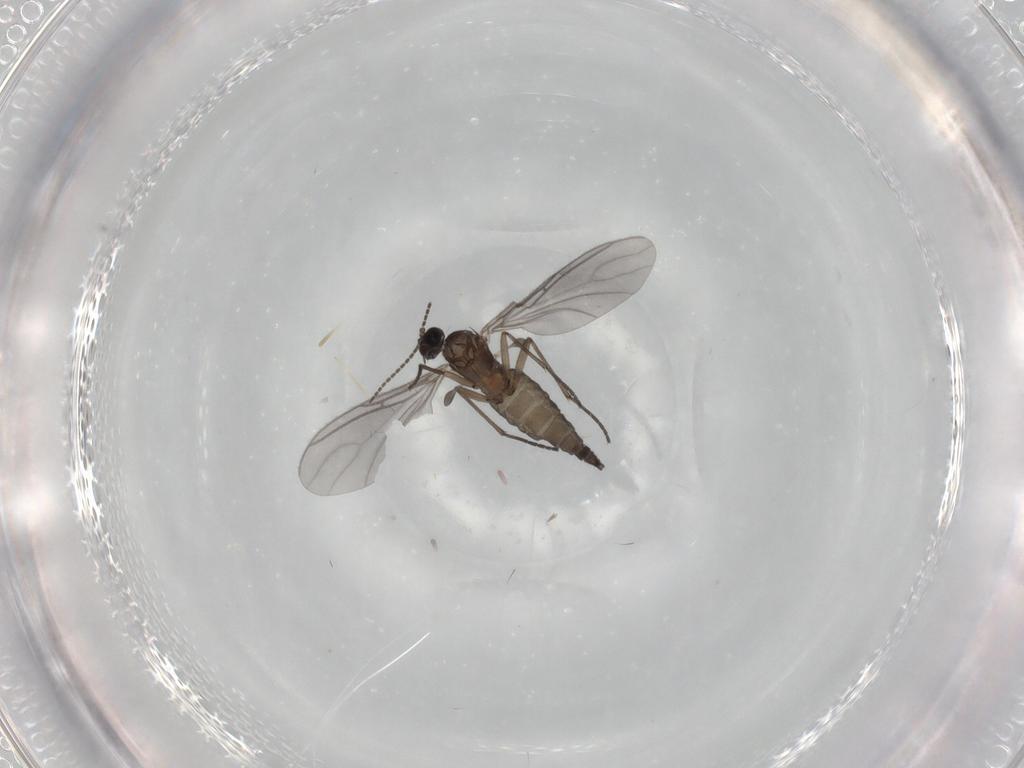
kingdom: Animalia
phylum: Arthropoda
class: Insecta
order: Diptera
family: Sciaridae
